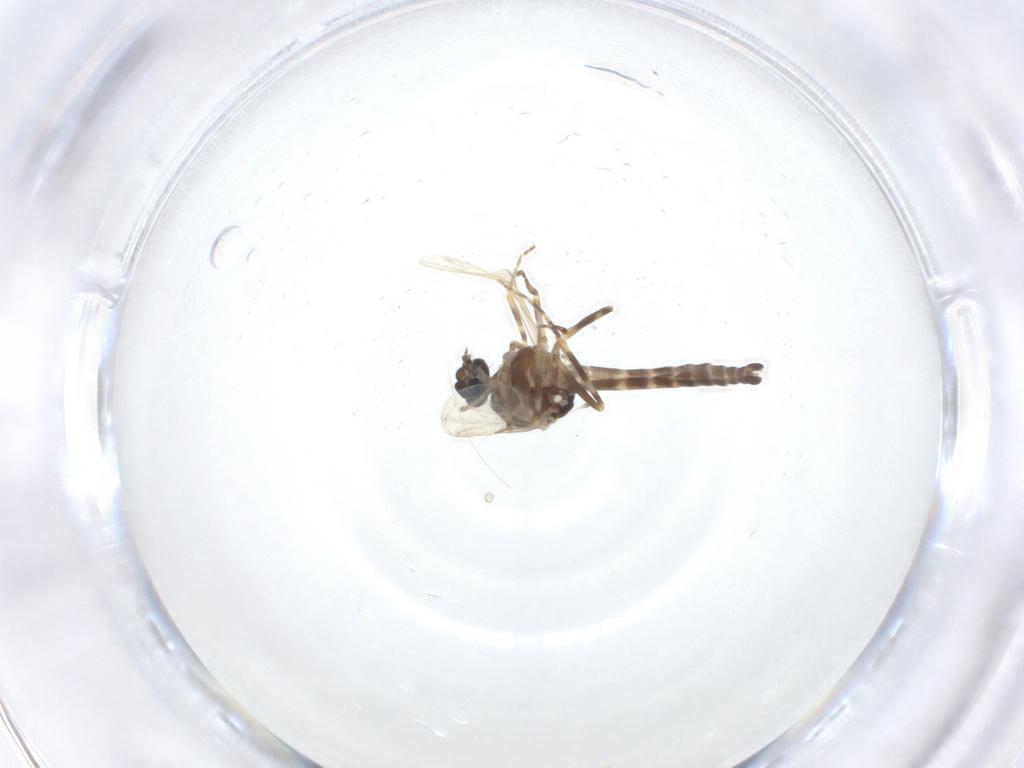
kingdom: Animalia
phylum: Arthropoda
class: Insecta
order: Diptera
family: Ceratopogonidae
